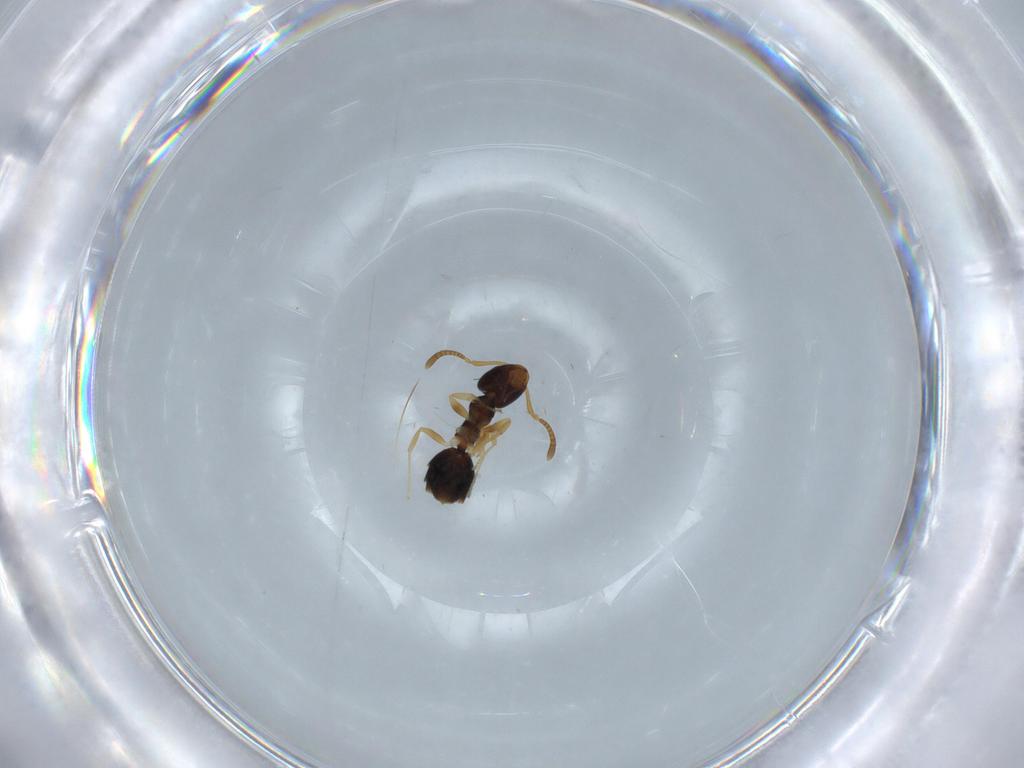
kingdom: Animalia
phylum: Arthropoda
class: Insecta
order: Hymenoptera
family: Formicidae
